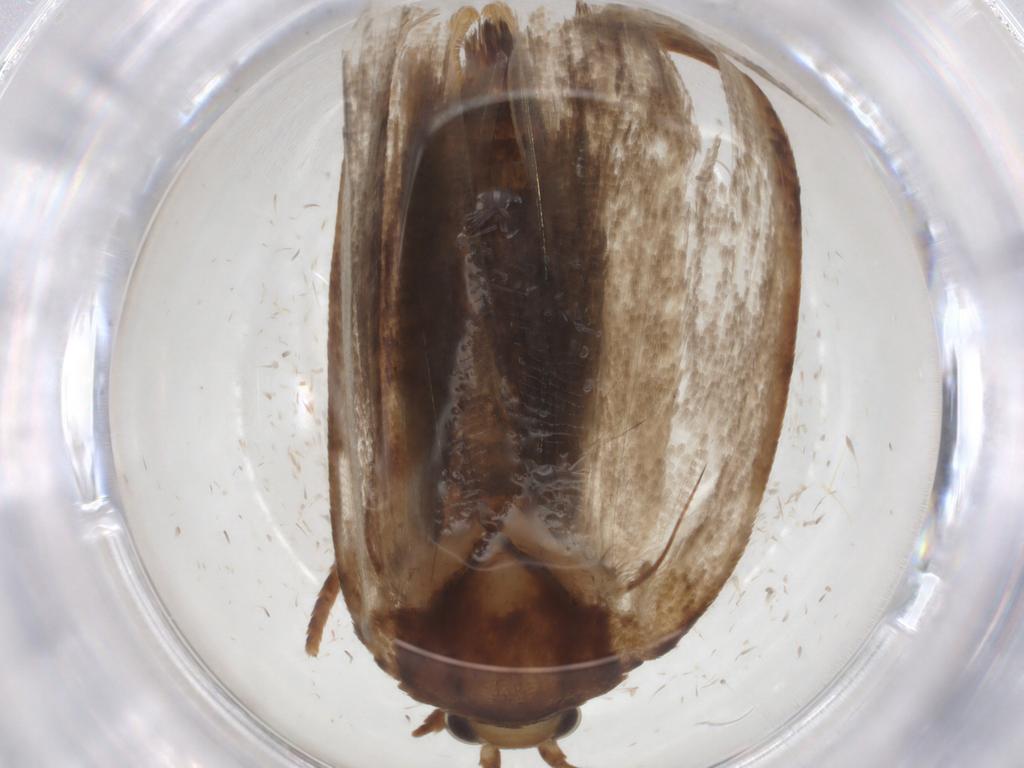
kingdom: Animalia
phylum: Arthropoda
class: Insecta
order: Lepidoptera
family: Geometridae
